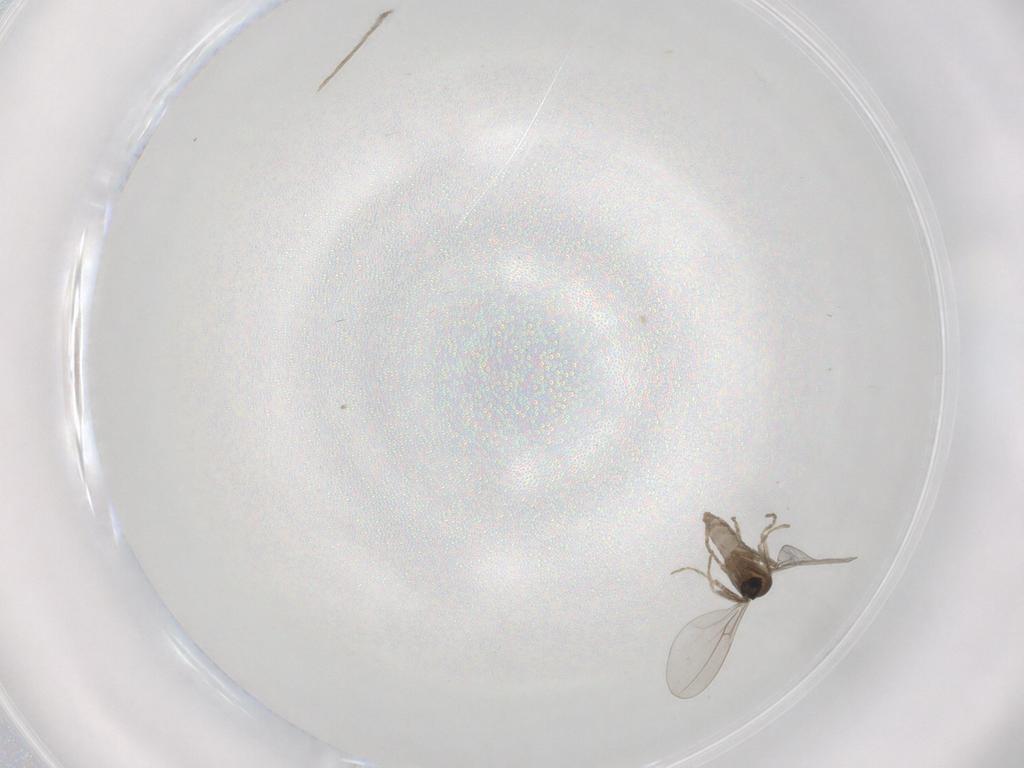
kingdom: Animalia
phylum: Arthropoda
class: Insecta
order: Diptera
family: Cecidomyiidae
